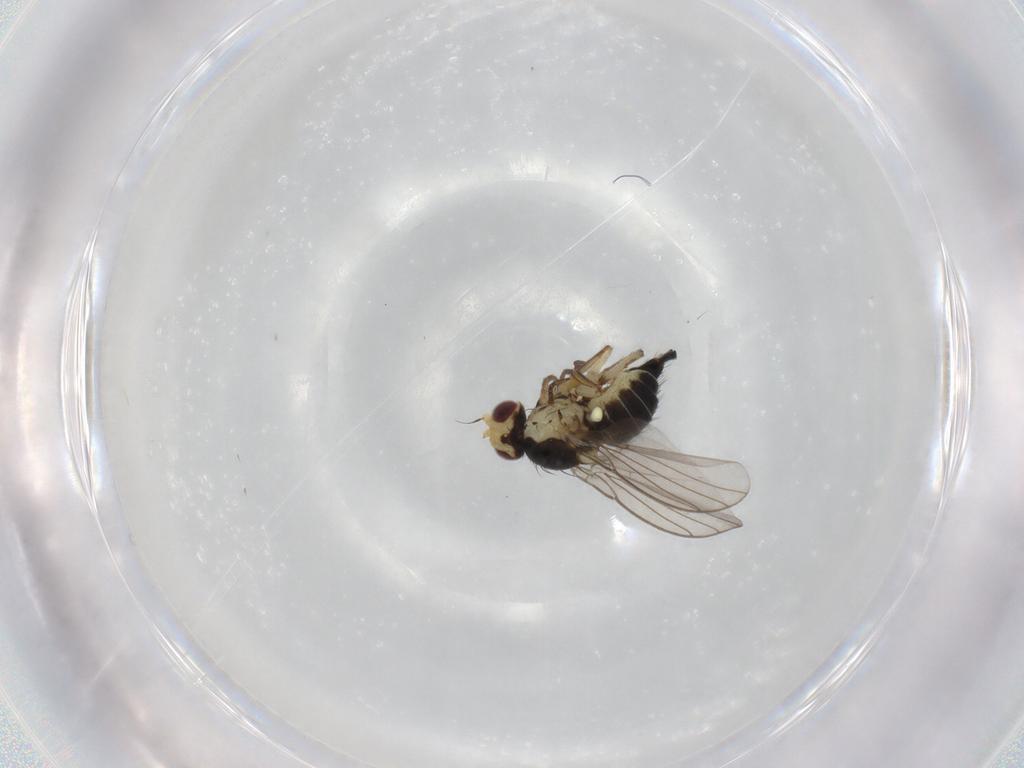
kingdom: Animalia
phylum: Arthropoda
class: Insecta
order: Diptera
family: Agromyzidae
